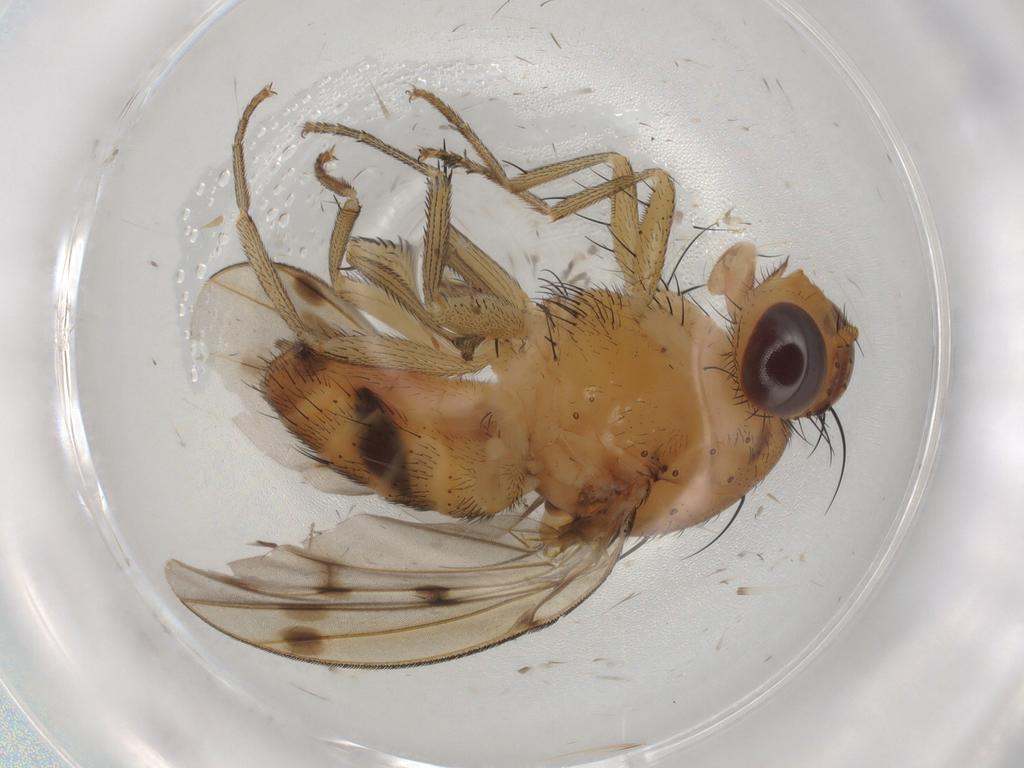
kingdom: Animalia
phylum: Arthropoda
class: Insecta
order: Diptera
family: Lauxaniidae
